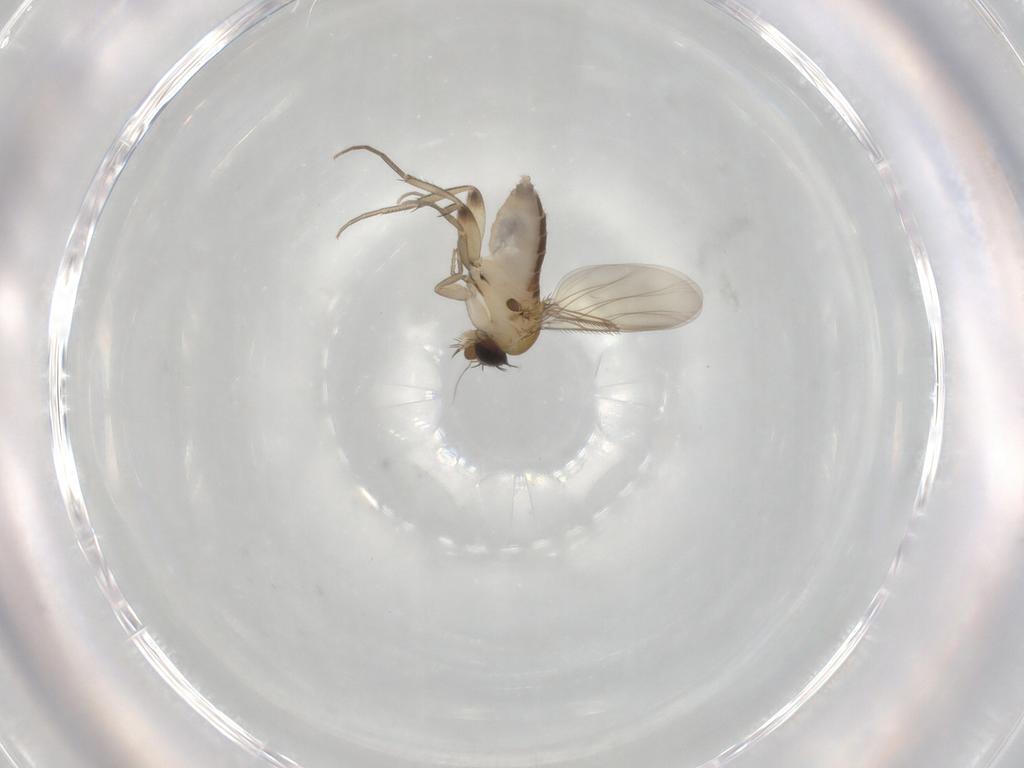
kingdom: Animalia
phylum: Arthropoda
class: Insecta
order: Diptera
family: Phoridae
